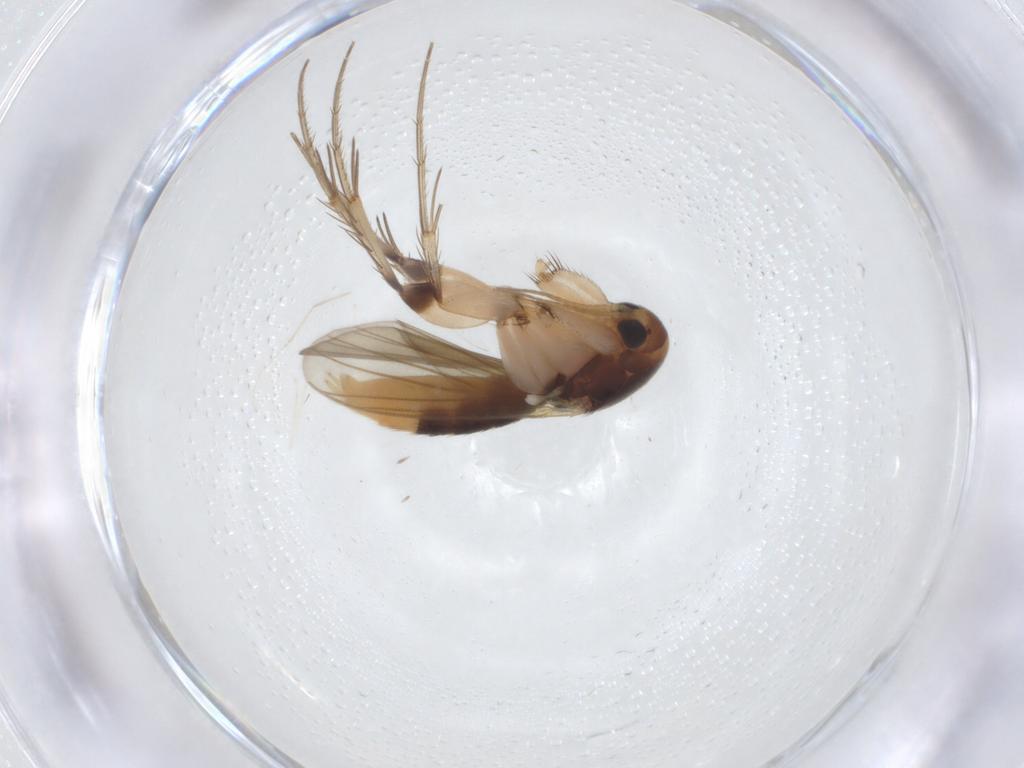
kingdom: Animalia
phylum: Arthropoda
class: Insecta
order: Diptera
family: Mycetophilidae
